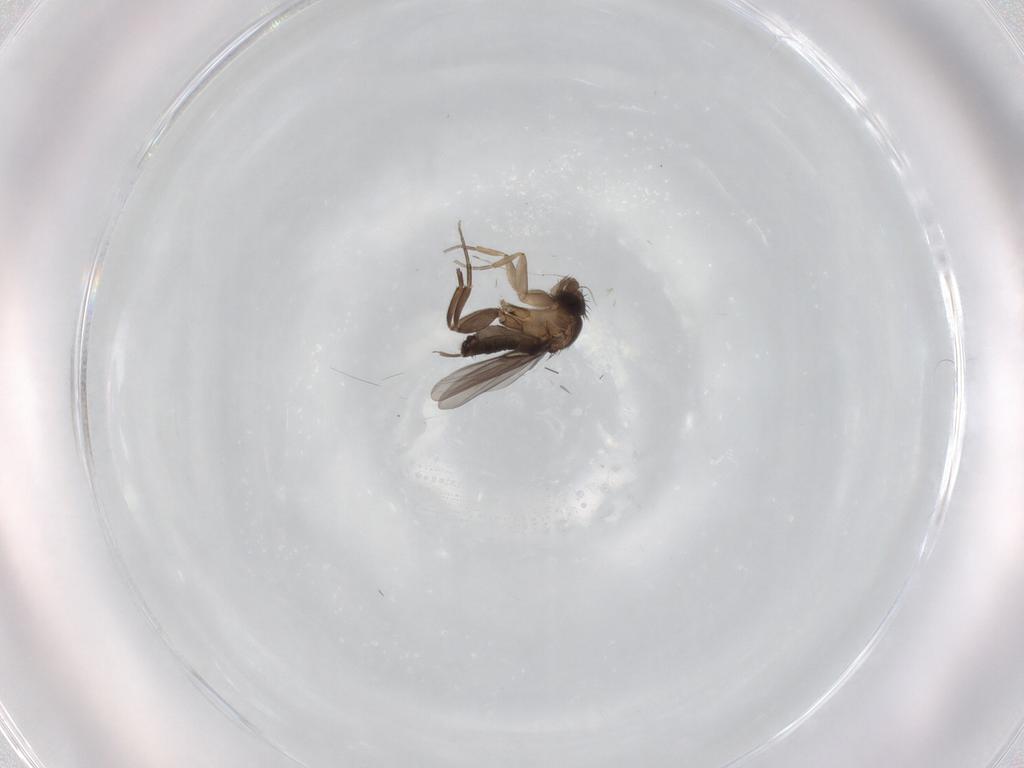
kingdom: Animalia
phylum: Arthropoda
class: Insecta
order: Diptera
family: Phoridae
